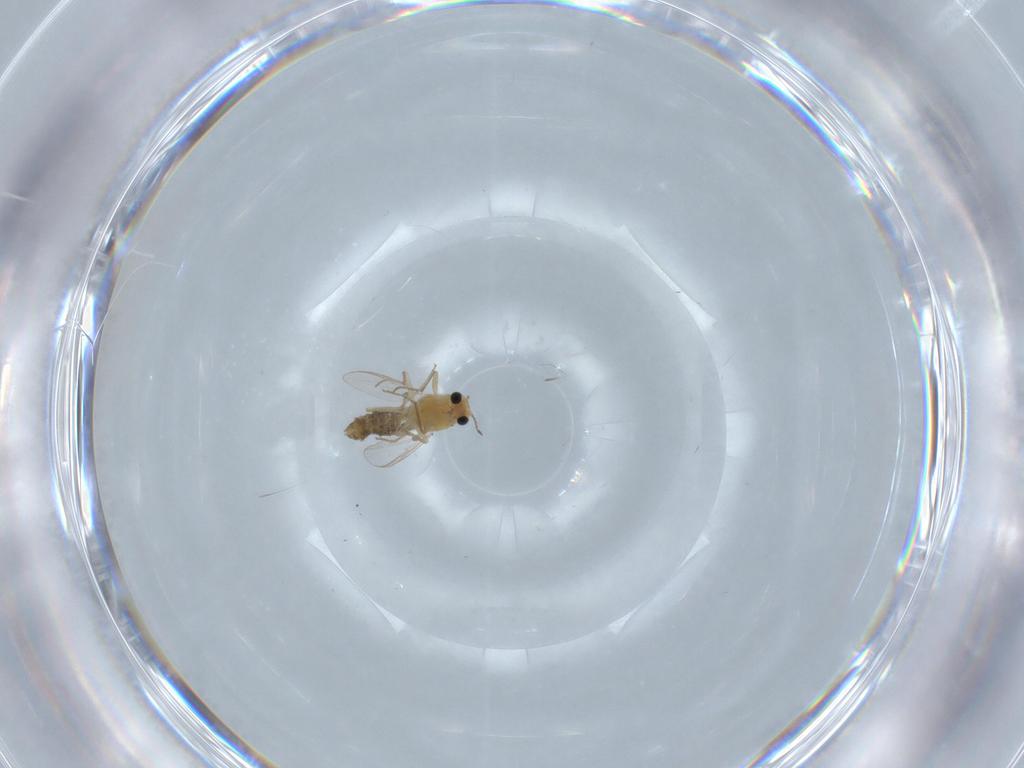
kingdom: Animalia
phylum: Arthropoda
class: Insecta
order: Diptera
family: Chironomidae
